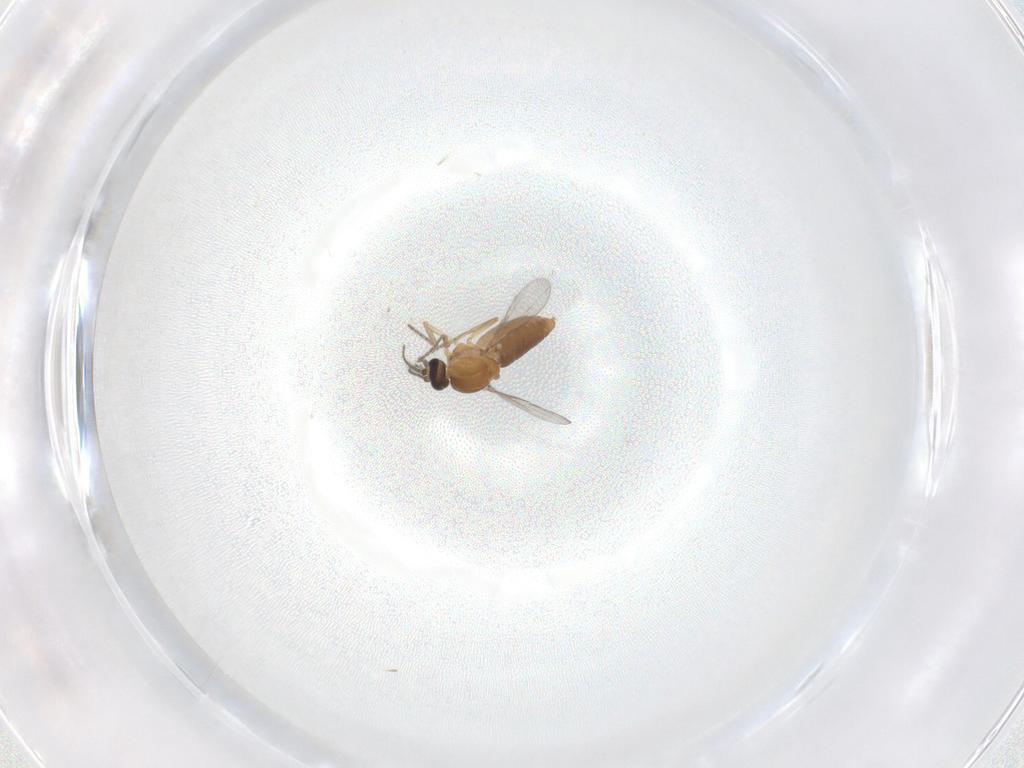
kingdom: Animalia
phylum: Arthropoda
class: Insecta
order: Diptera
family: Ceratopogonidae
